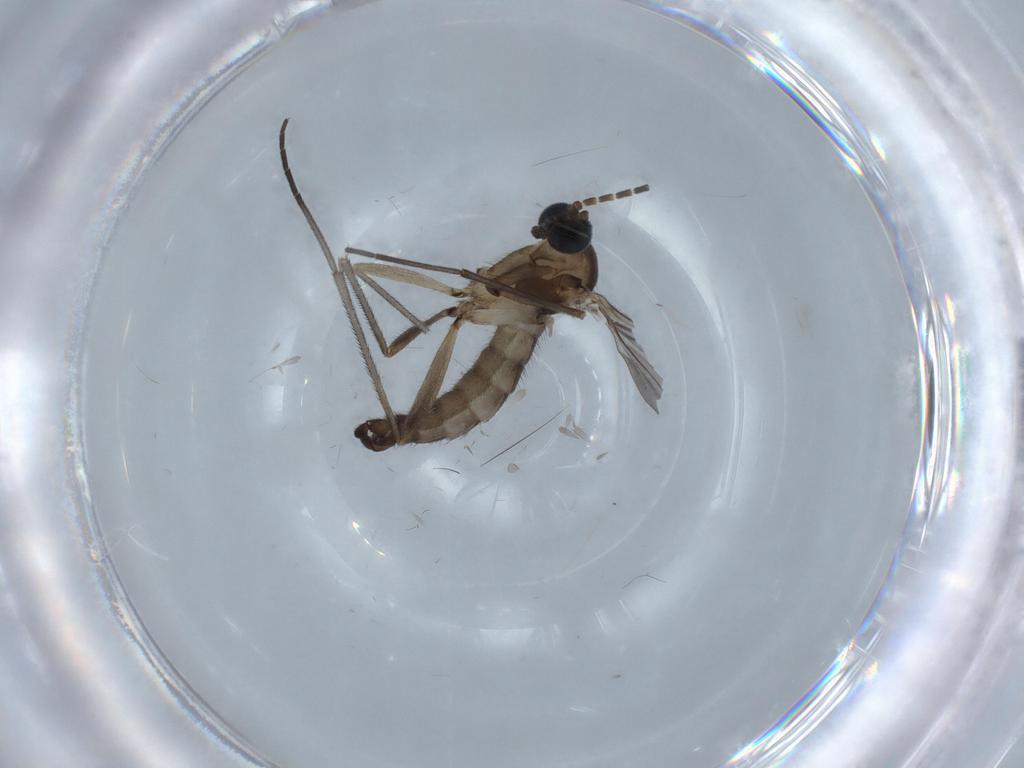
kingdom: Animalia
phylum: Arthropoda
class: Insecta
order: Diptera
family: Sciaridae
